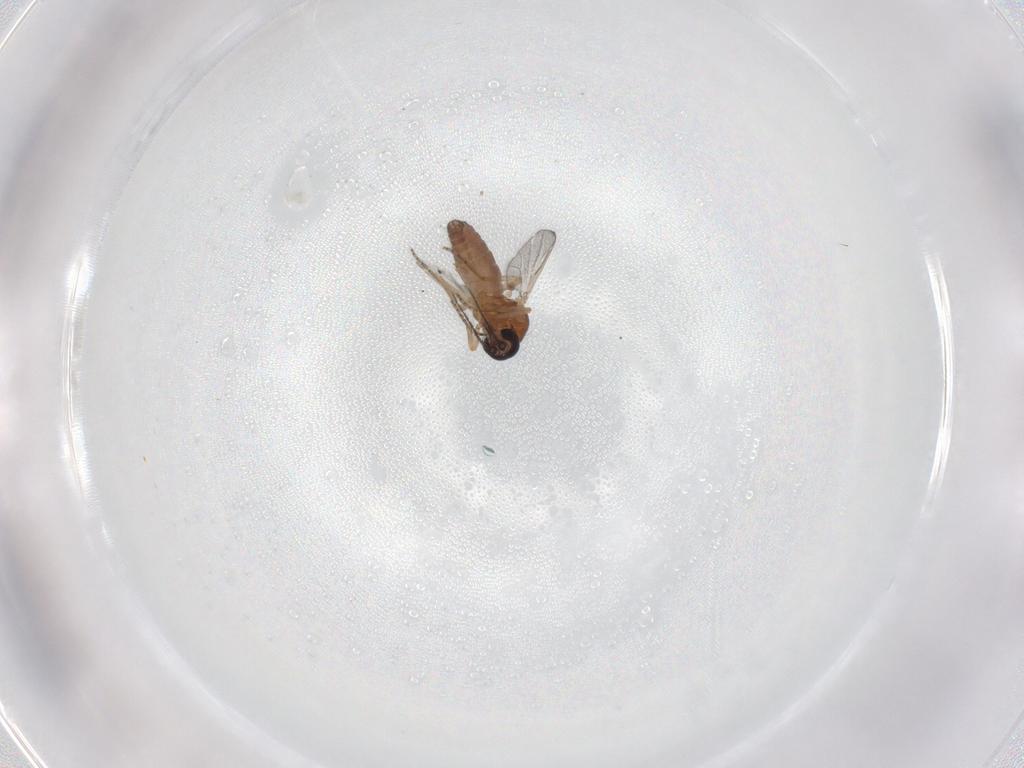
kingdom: Animalia
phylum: Arthropoda
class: Insecta
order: Diptera
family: Ceratopogonidae
